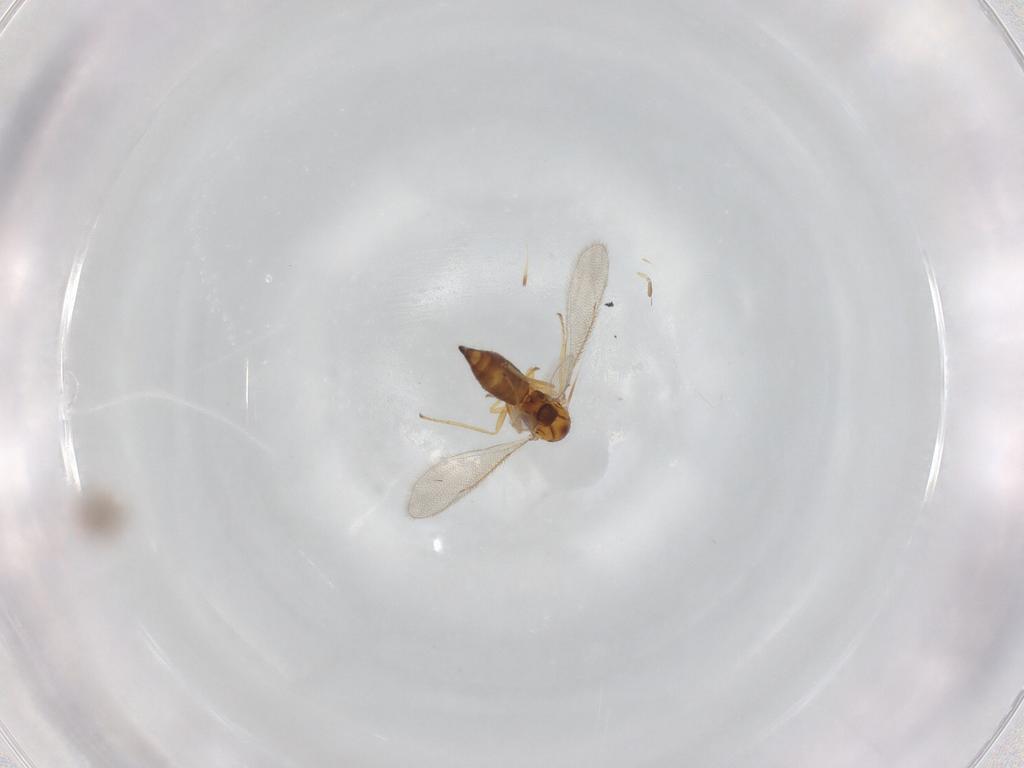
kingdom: Animalia
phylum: Arthropoda
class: Insecta
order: Hymenoptera
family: Eulophidae
